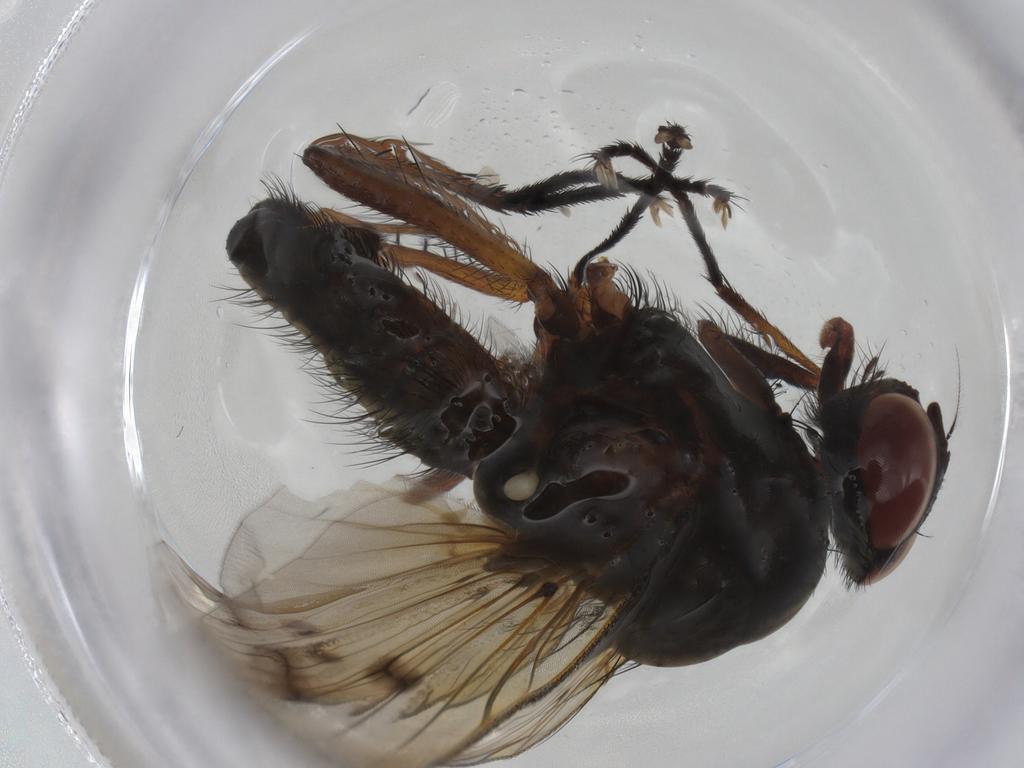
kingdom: Animalia
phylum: Arthropoda
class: Insecta
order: Diptera
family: Anthomyiidae
